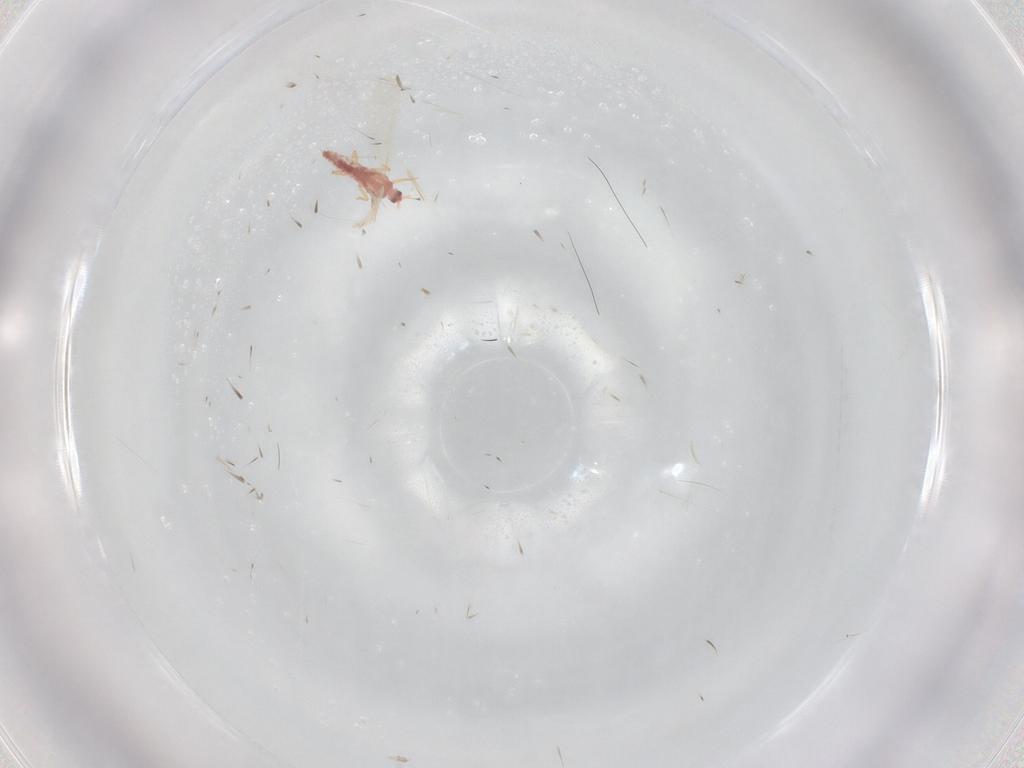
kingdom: Animalia
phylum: Arthropoda
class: Insecta
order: Hemiptera
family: Pseudococcidae
